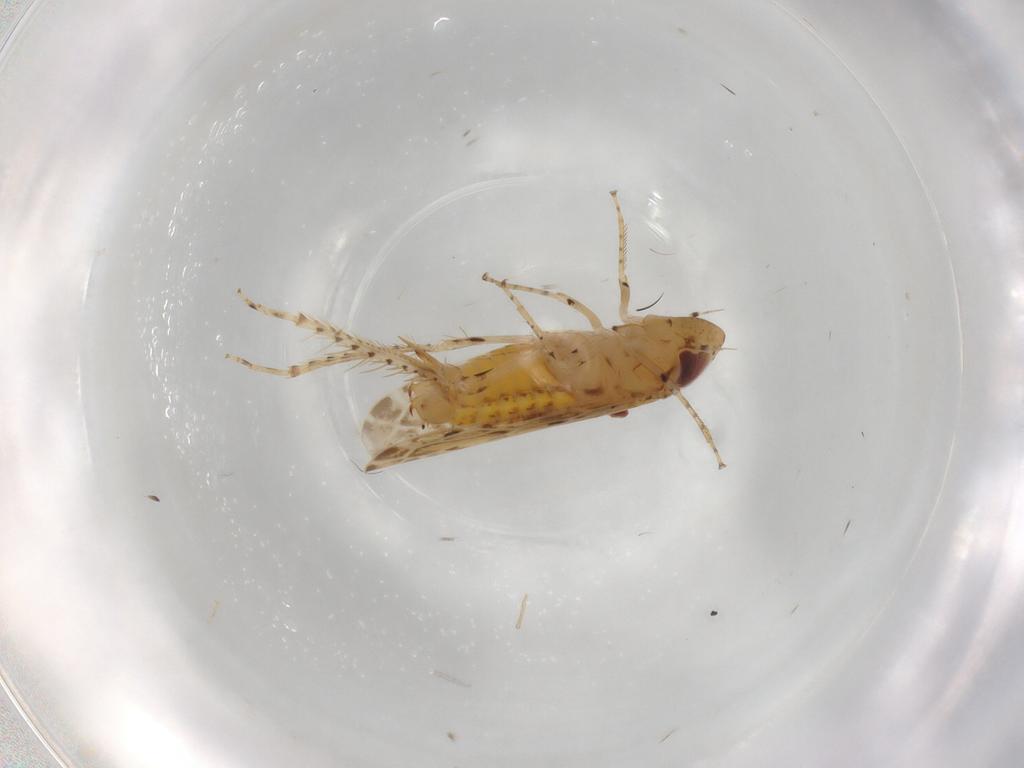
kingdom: Animalia
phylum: Arthropoda
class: Insecta
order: Hemiptera
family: Cicadellidae
